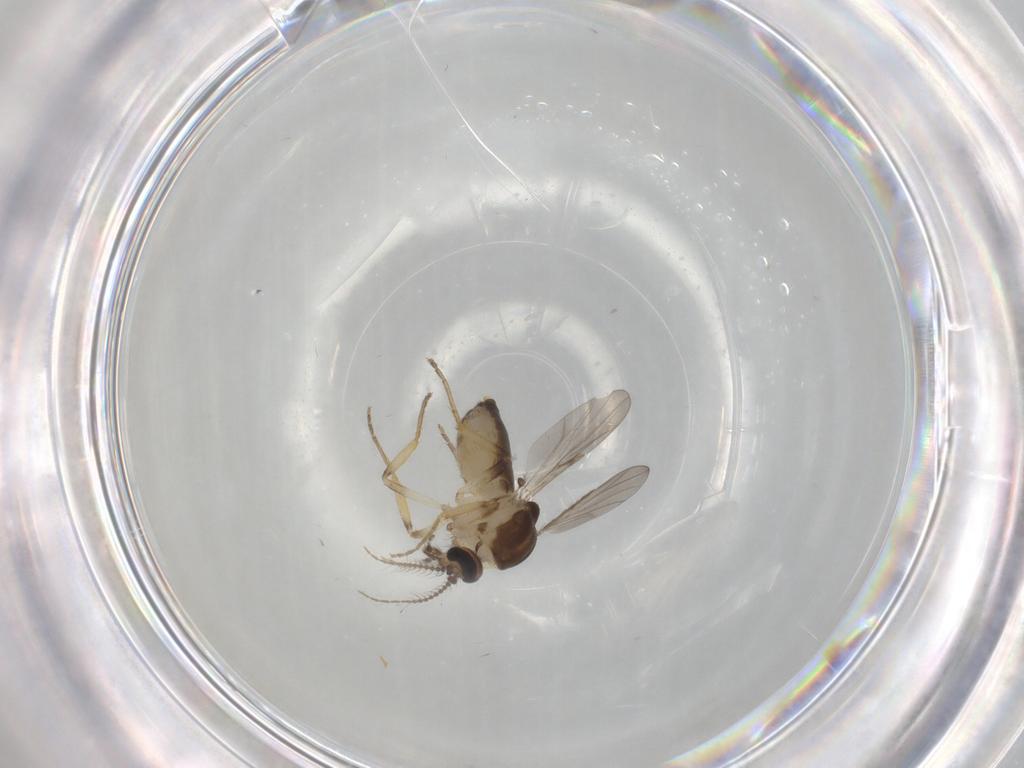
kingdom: Animalia
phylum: Arthropoda
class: Insecta
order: Diptera
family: Ceratopogonidae
